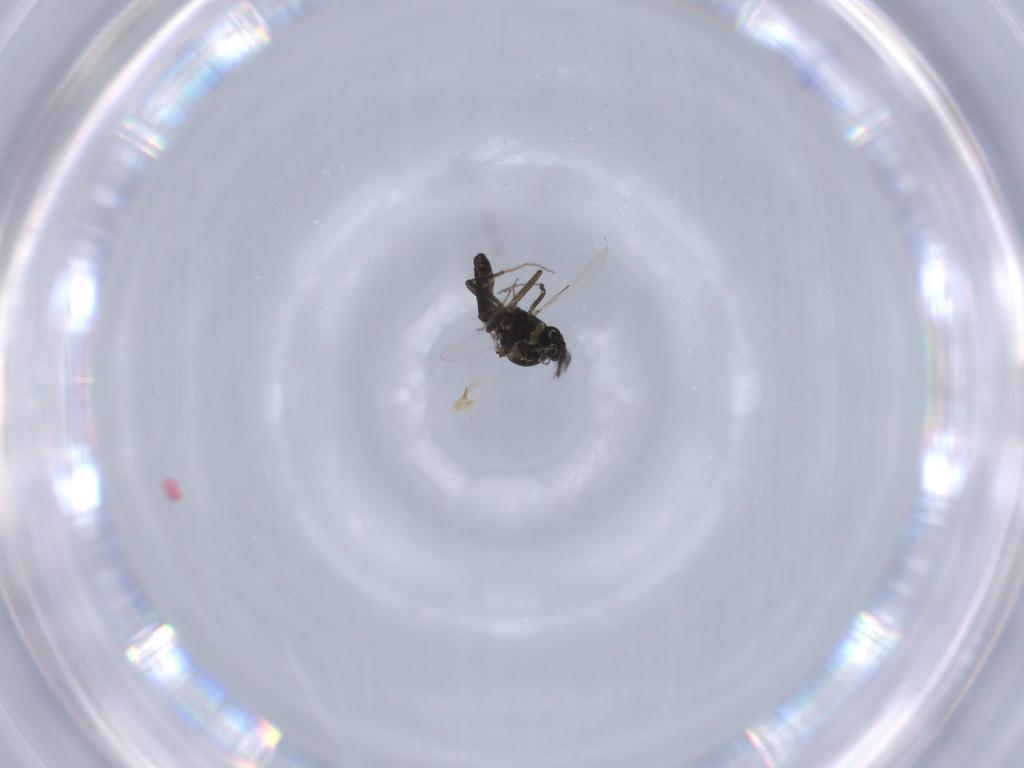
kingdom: Animalia
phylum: Arthropoda
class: Insecta
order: Diptera
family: Ceratopogonidae
